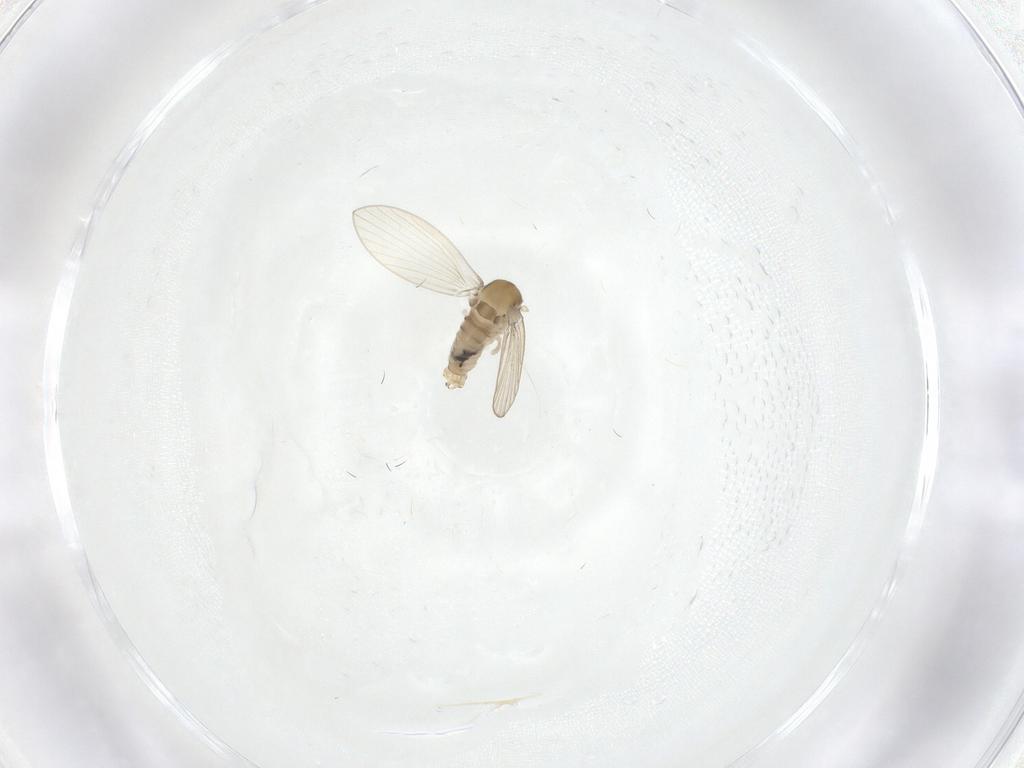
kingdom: Animalia
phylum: Arthropoda
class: Insecta
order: Diptera
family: Psychodidae
